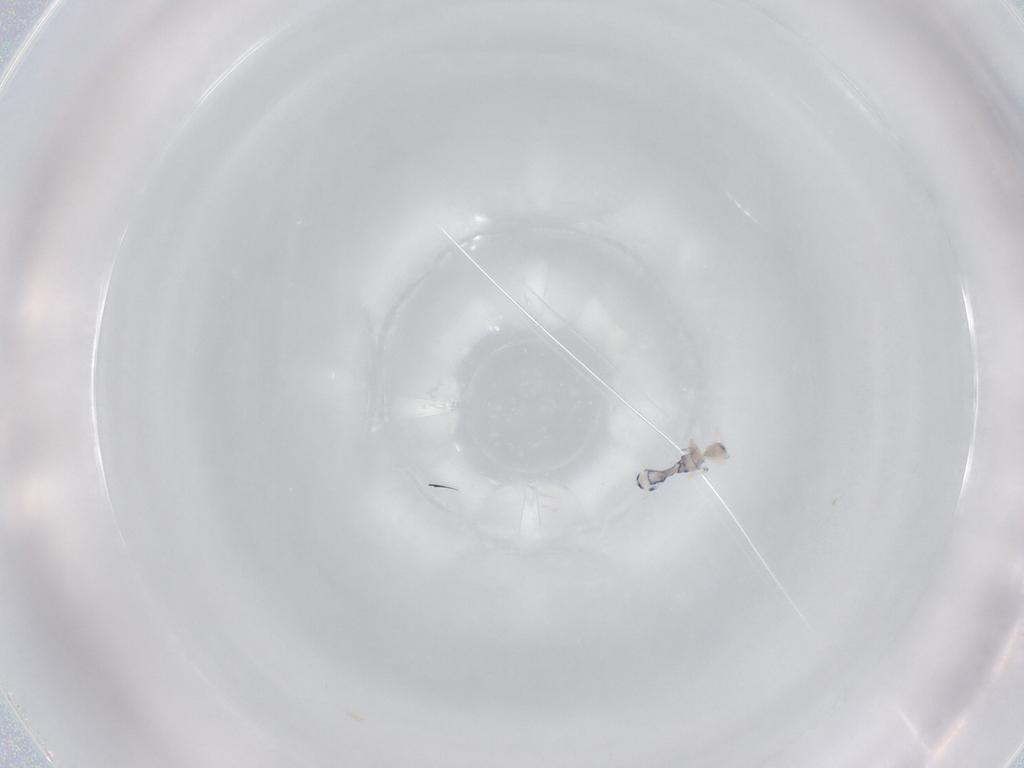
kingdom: Animalia
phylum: Arthropoda
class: Collembola
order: Entomobryomorpha
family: Entomobryidae
